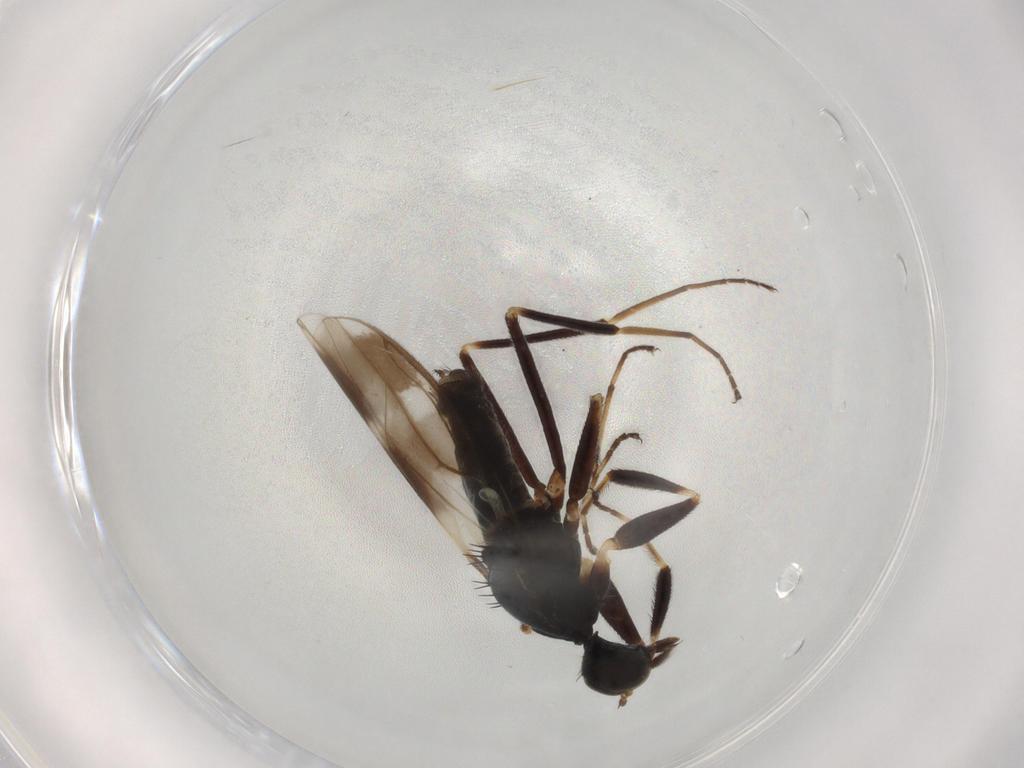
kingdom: Animalia
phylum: Arthropoda
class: Insecta
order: Diptera
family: Hybotidae
